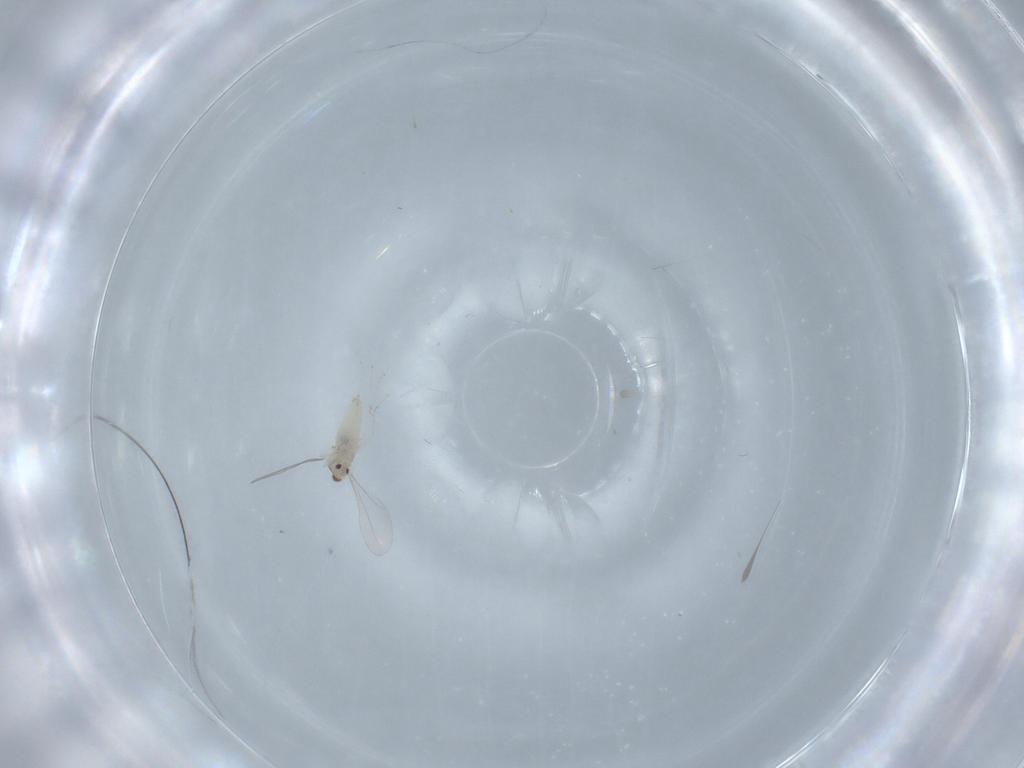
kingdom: Animalia
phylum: Arthropoda
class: Insecta
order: Diptera
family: Cecidomyiidae
